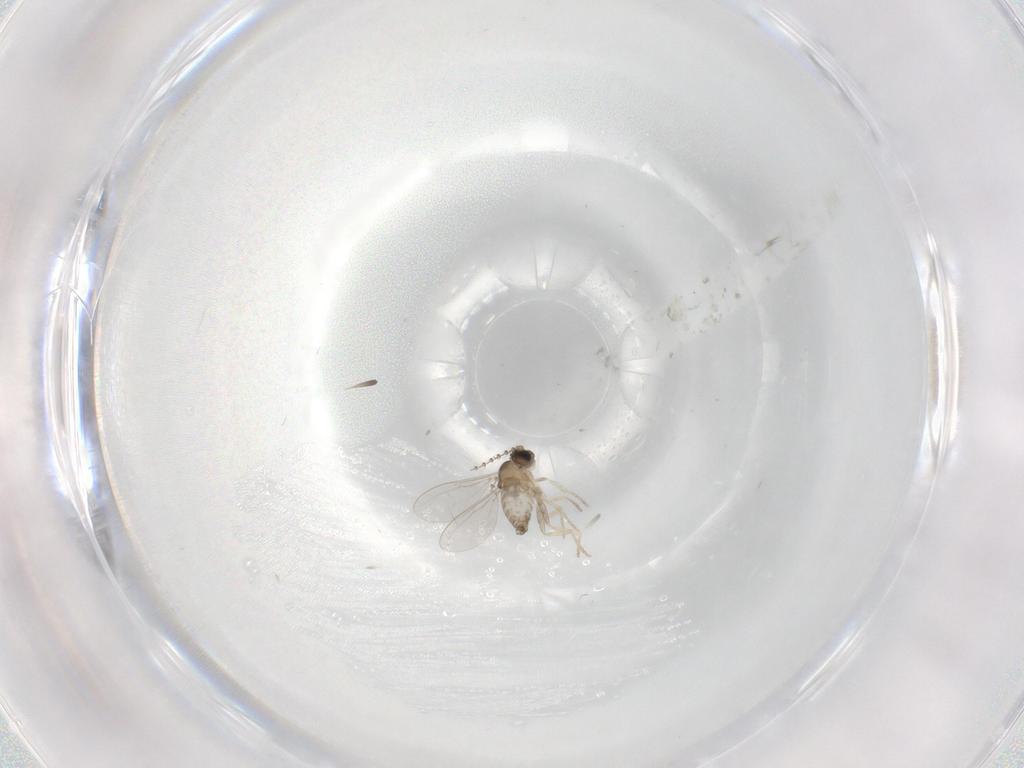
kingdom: Animalia
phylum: Arthropoda
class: Insecta
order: Diptera
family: Cecidomyiidae
